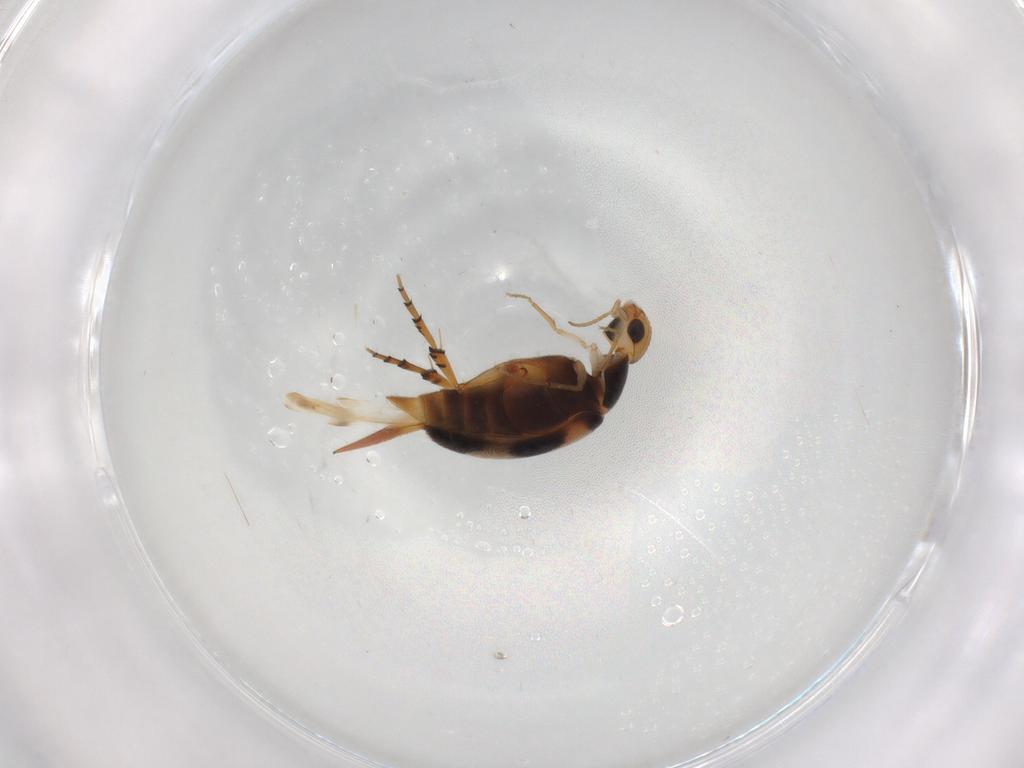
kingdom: Animalia
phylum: Arthropoda
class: Insecta
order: Coleoptera
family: Mordellidae
